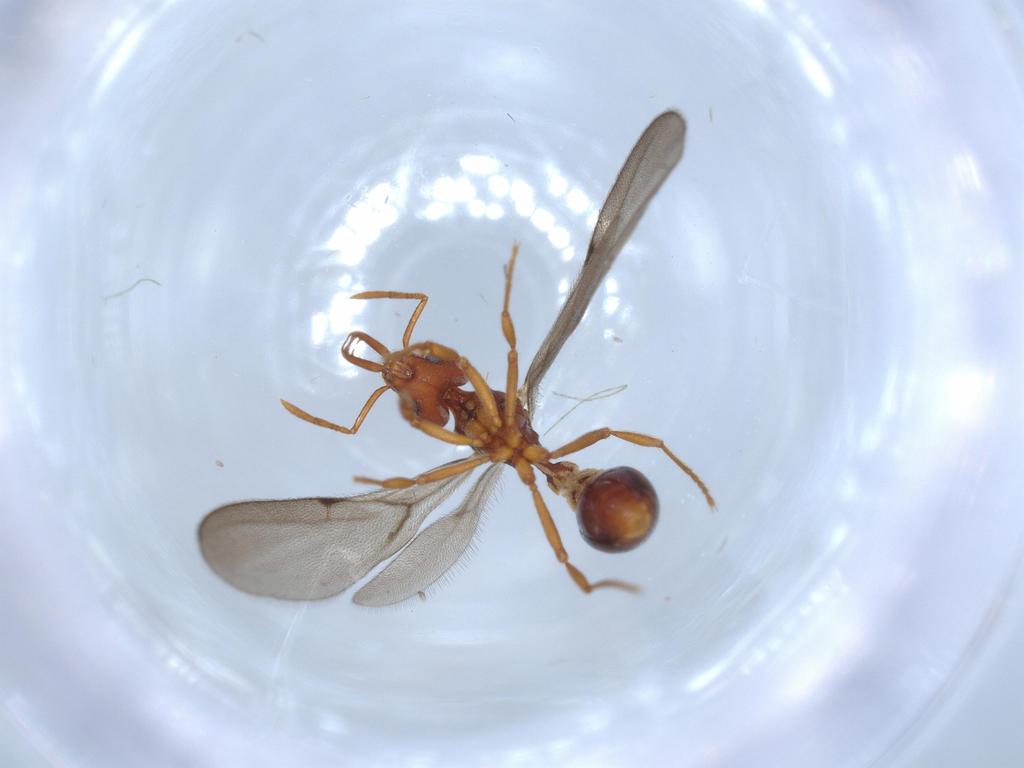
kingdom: Animalia
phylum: Arthropoda
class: Insecta
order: Hymenoptera
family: Formicidae
